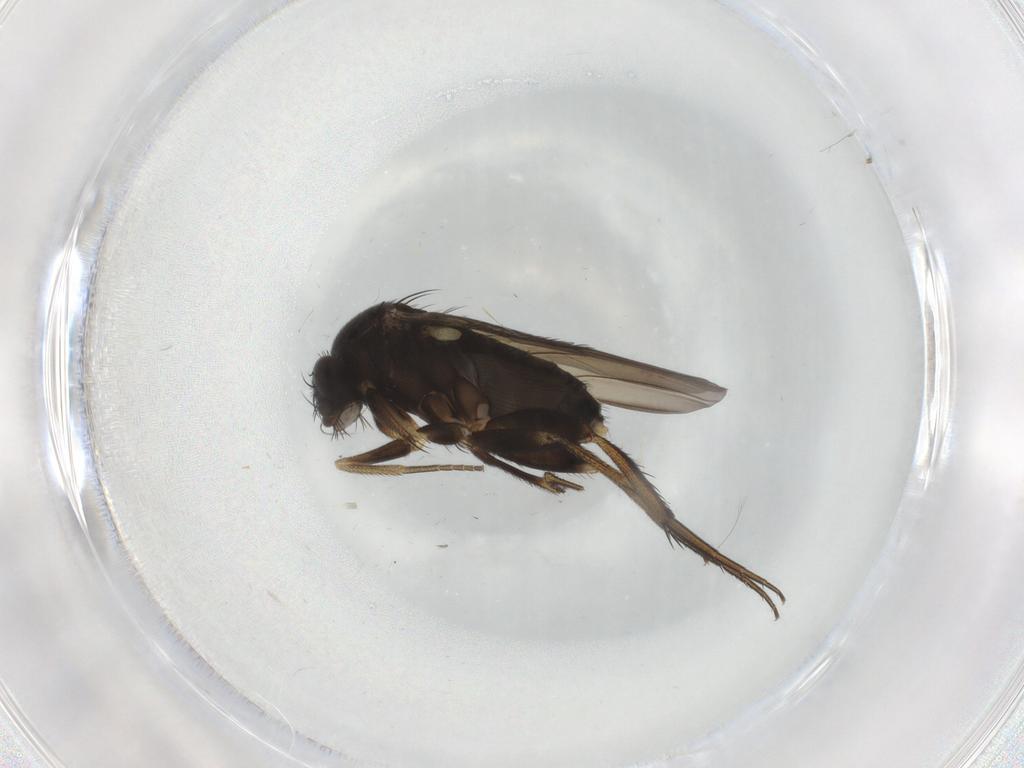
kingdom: Animalia
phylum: Arthropoda
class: Insecta
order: Diptera
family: Phoridae
